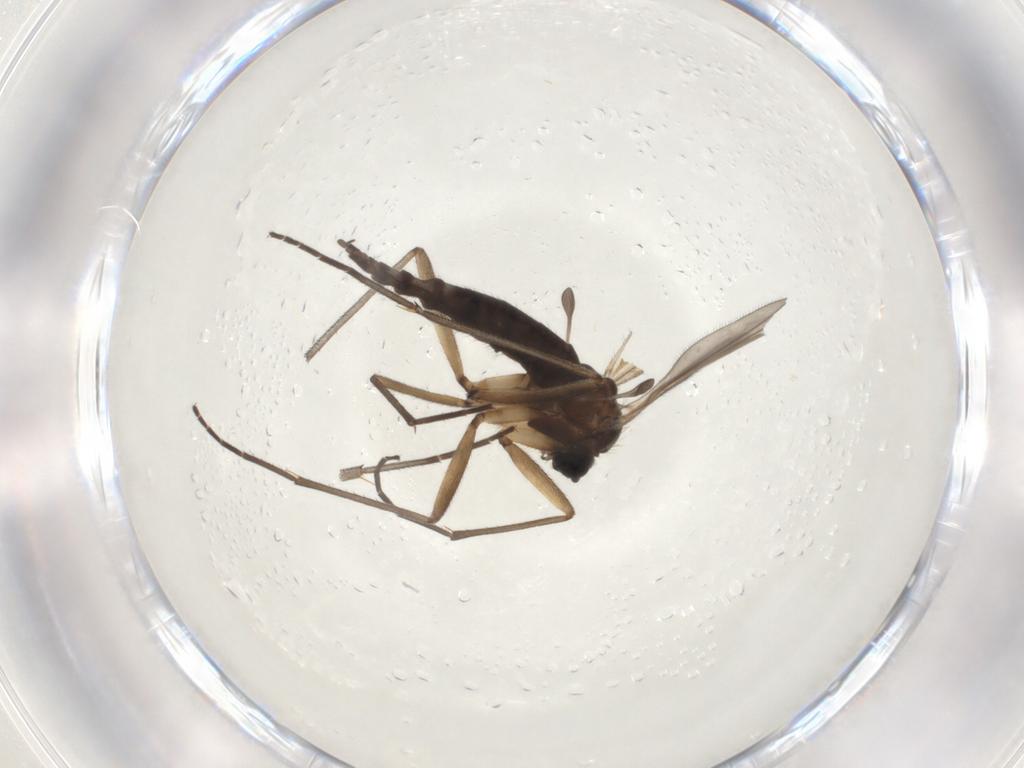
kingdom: Animalia
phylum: Arthropoda
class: Insecta
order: Diptera
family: Sciaridae
